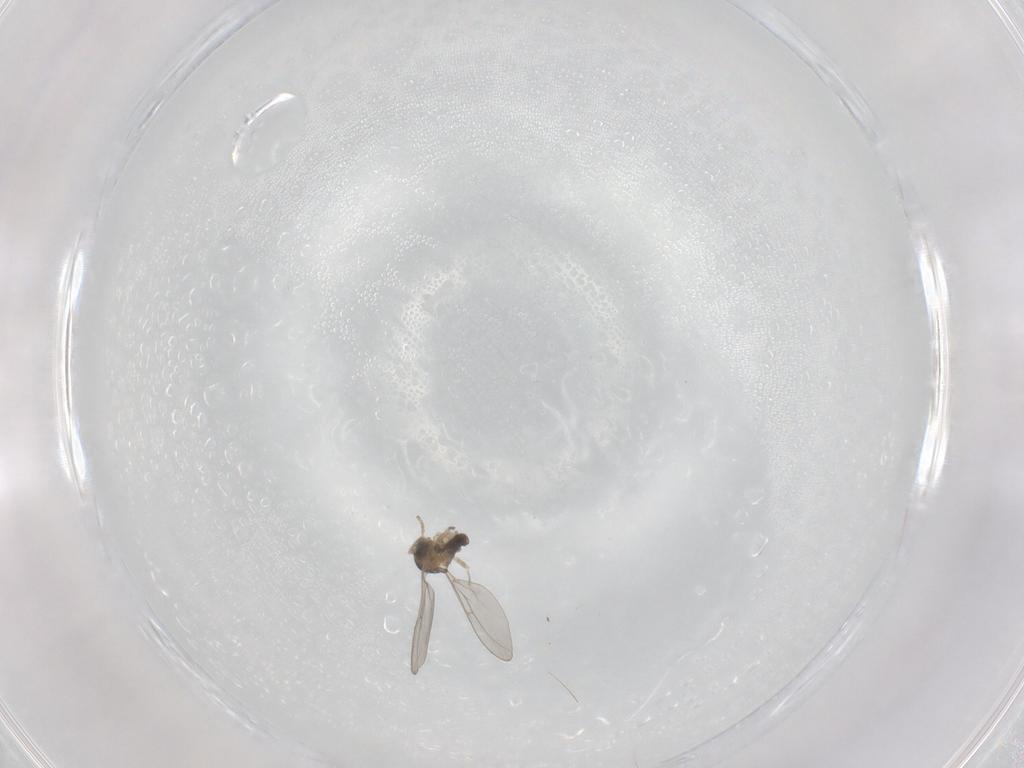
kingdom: Animalia
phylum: Arthropoda
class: Insecta
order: Diptera
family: Cecidomyiidae
